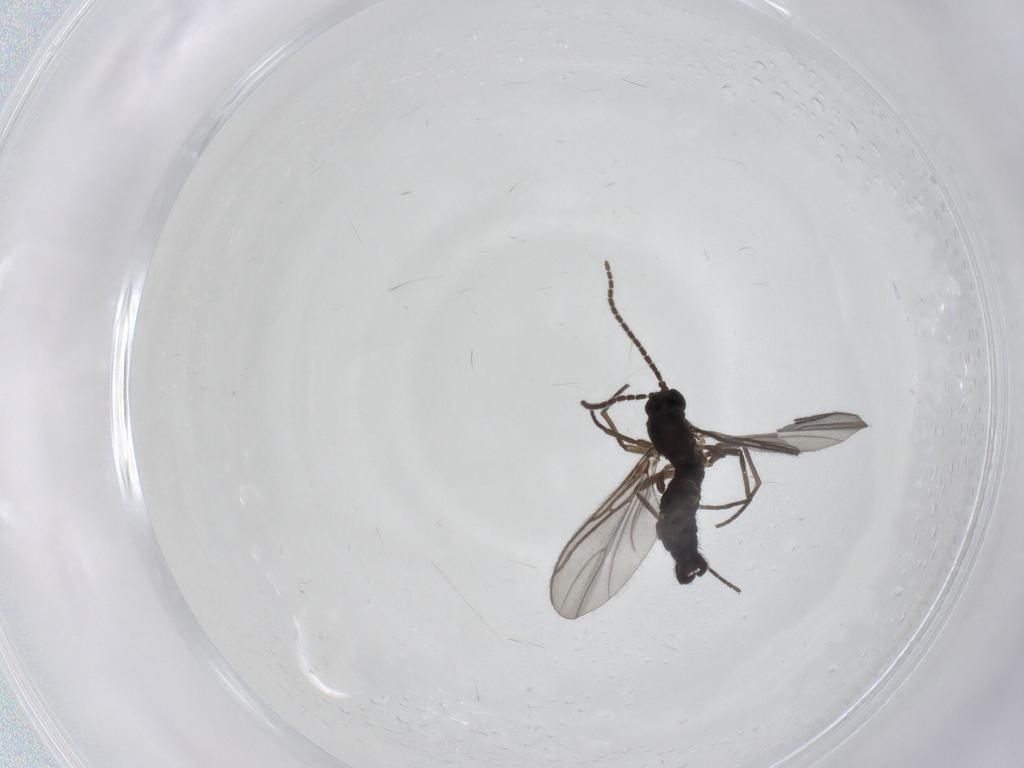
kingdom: Animalia
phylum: Arthropoda
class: Insecta
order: Diptera
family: Sciaridae
